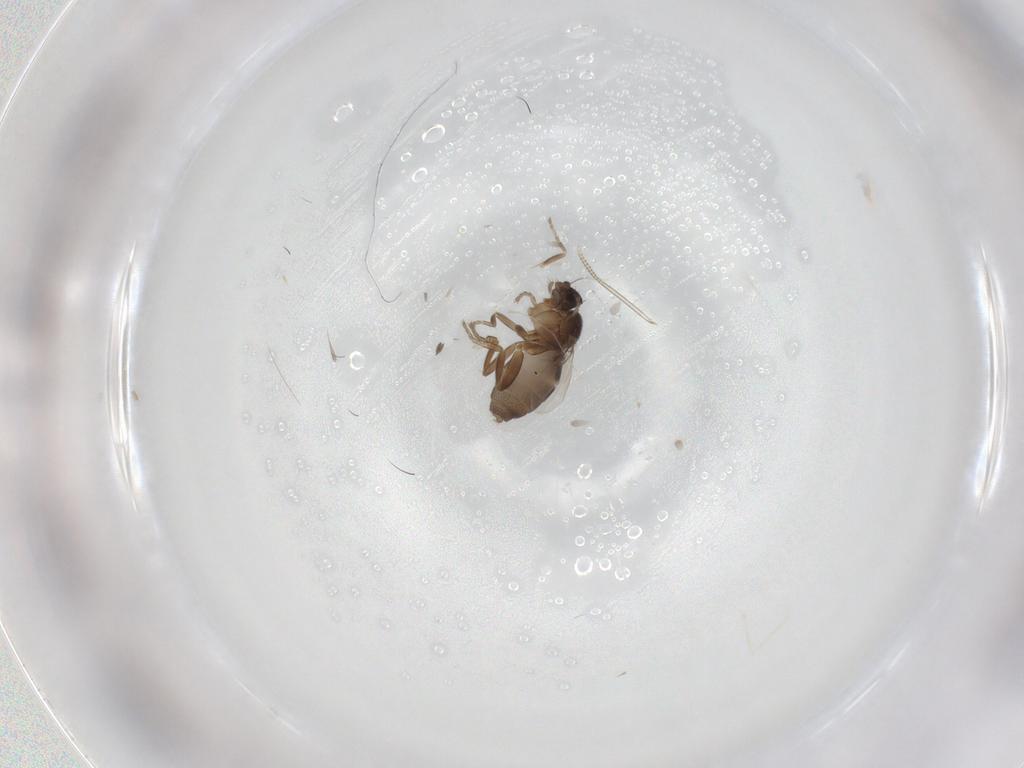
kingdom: Animalia
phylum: Arthropoda
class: Insecta
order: Diptera
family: Phoridae
